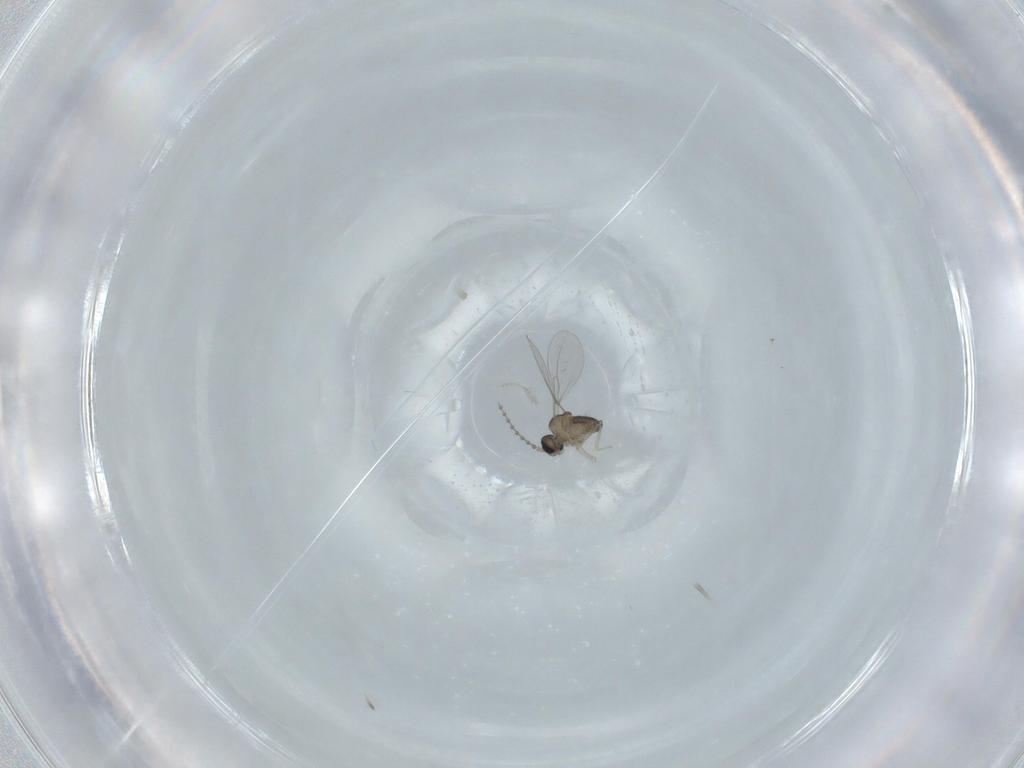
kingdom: Animalia
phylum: Arthropoda
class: Insecta
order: Diptera
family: Cecidomyiidae
